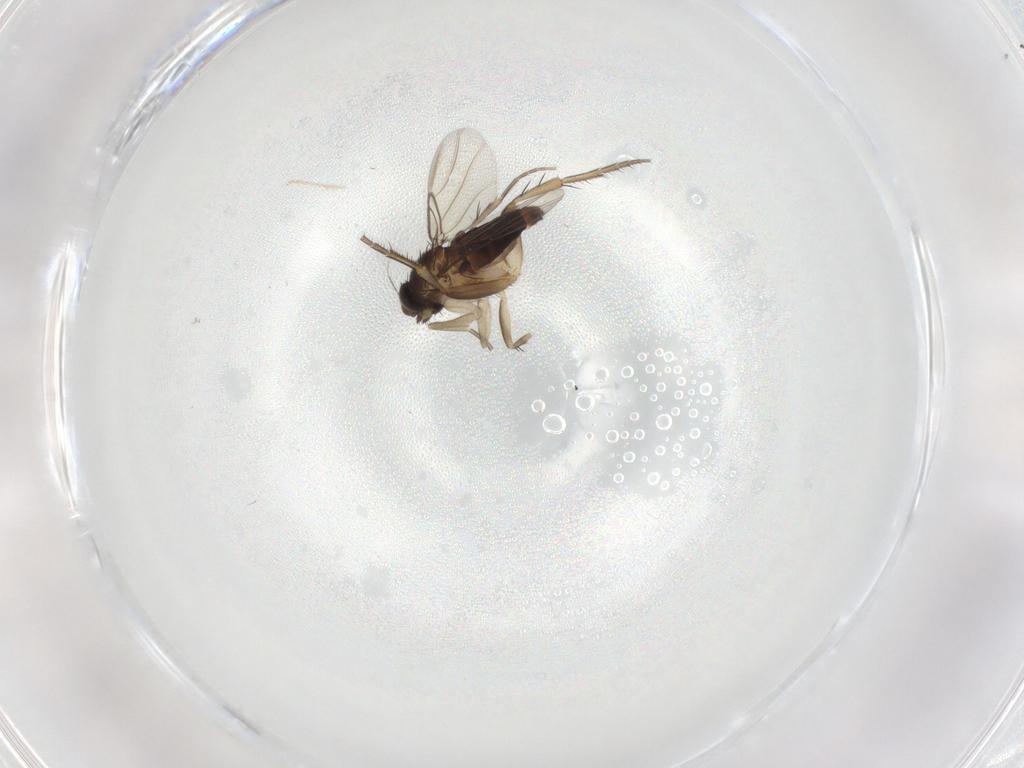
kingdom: Animalia
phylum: Arthropoda
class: Insecta
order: Diptera
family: Phoridae
